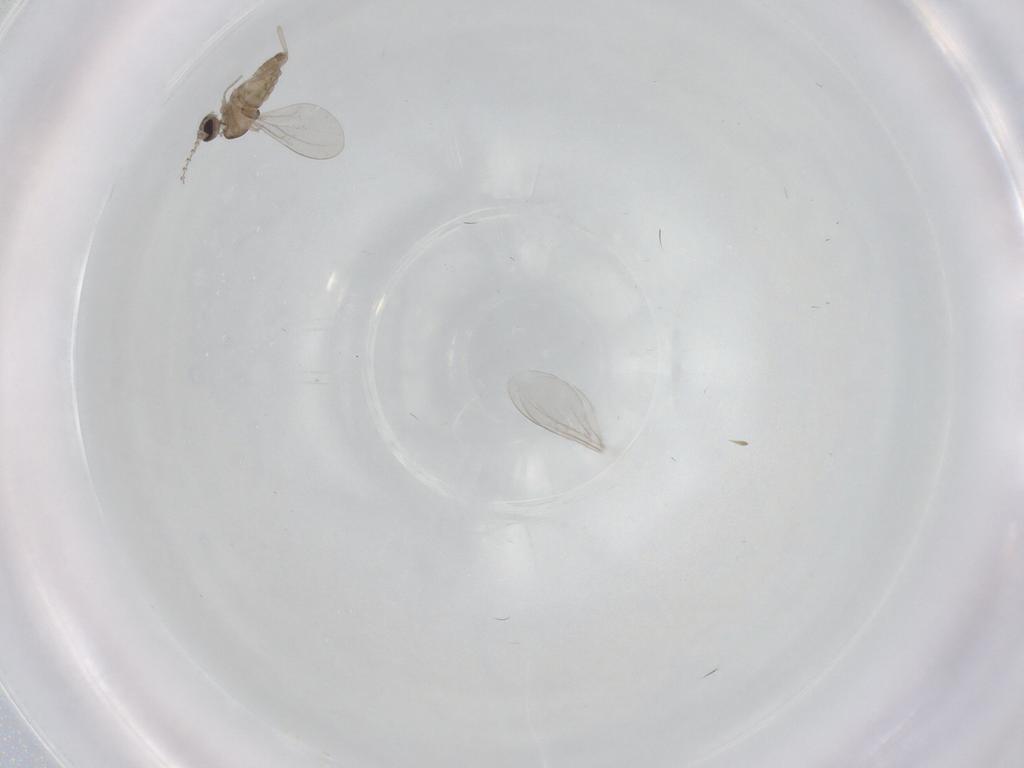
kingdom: Animalia
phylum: Arthropoda
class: Insecta
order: Diptera
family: Cecidomyiidae
